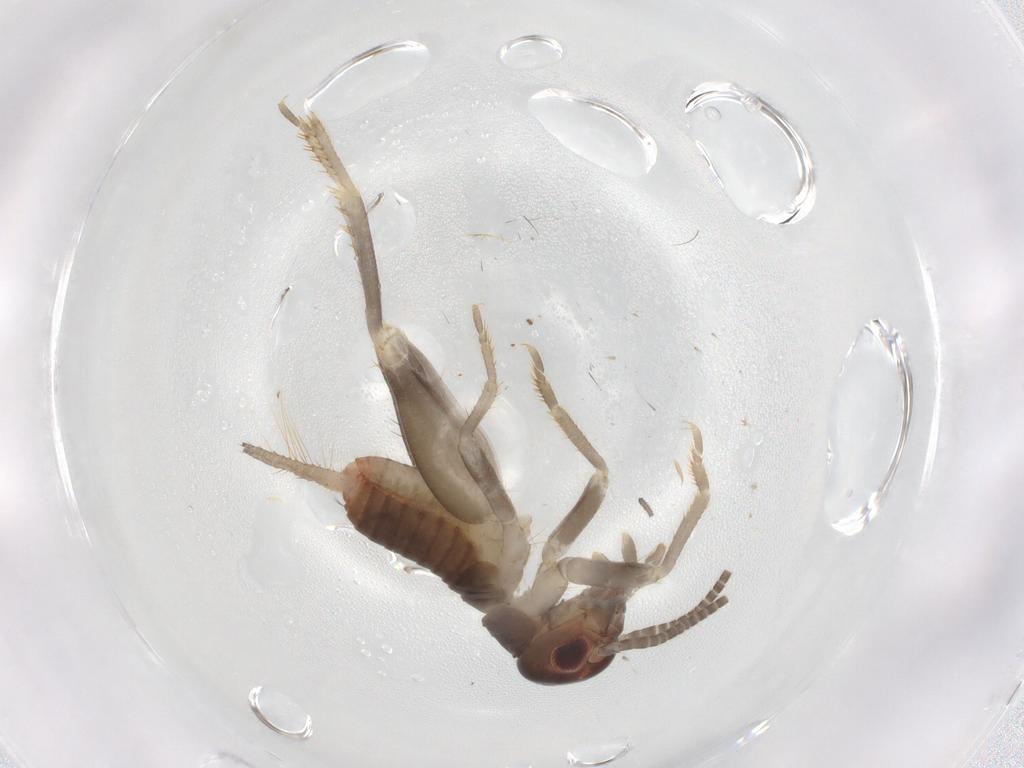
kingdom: Animalia
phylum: Arthropoda
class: Insecta
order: Orthoptera
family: Gryllidae
